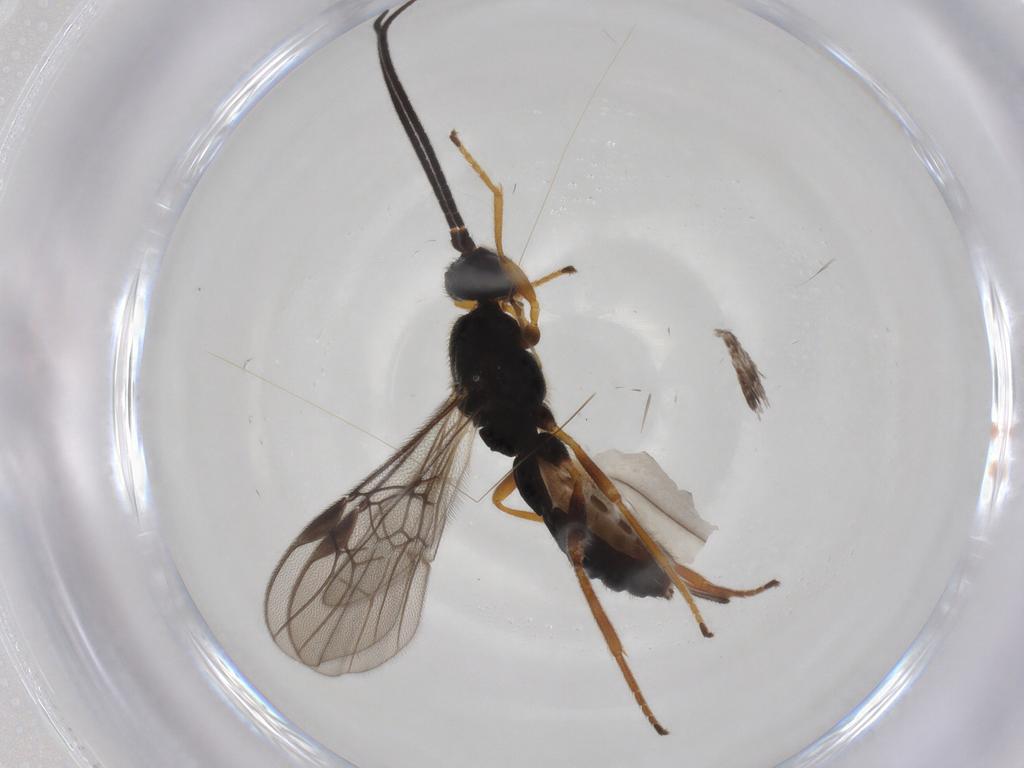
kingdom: Animalia
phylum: Arthropoda
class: Insecta
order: Hymenoptera
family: Braconidae
